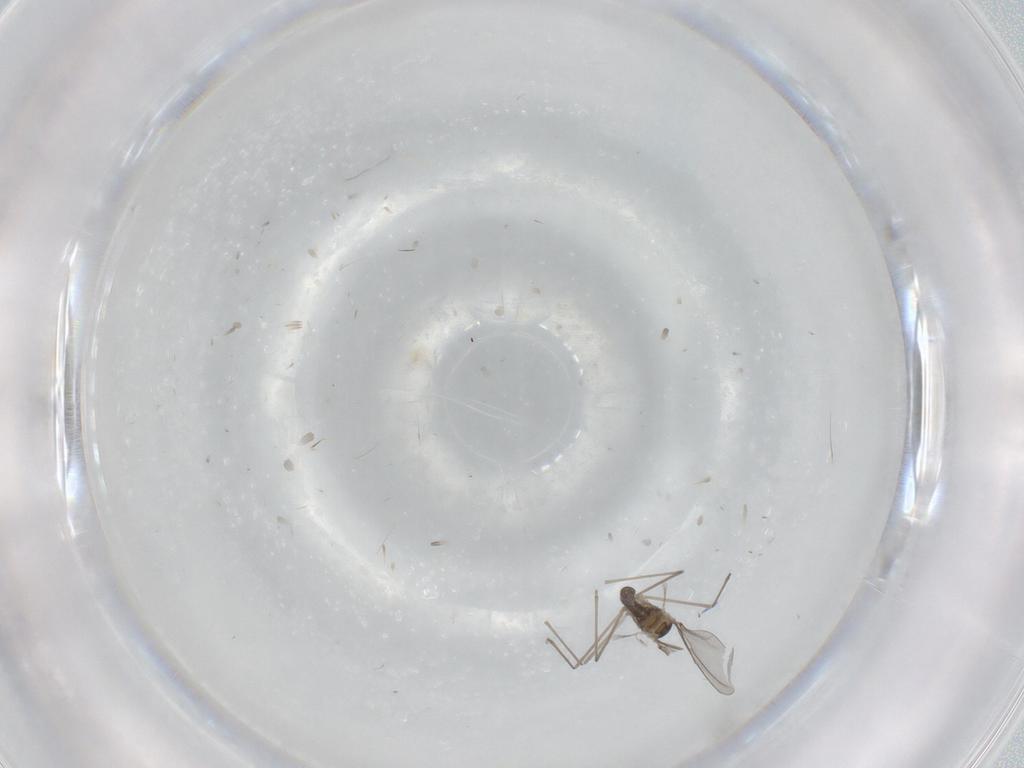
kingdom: Animalia
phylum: Arthropoda
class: Insecta
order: Diptera
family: Cecidomyiidae
